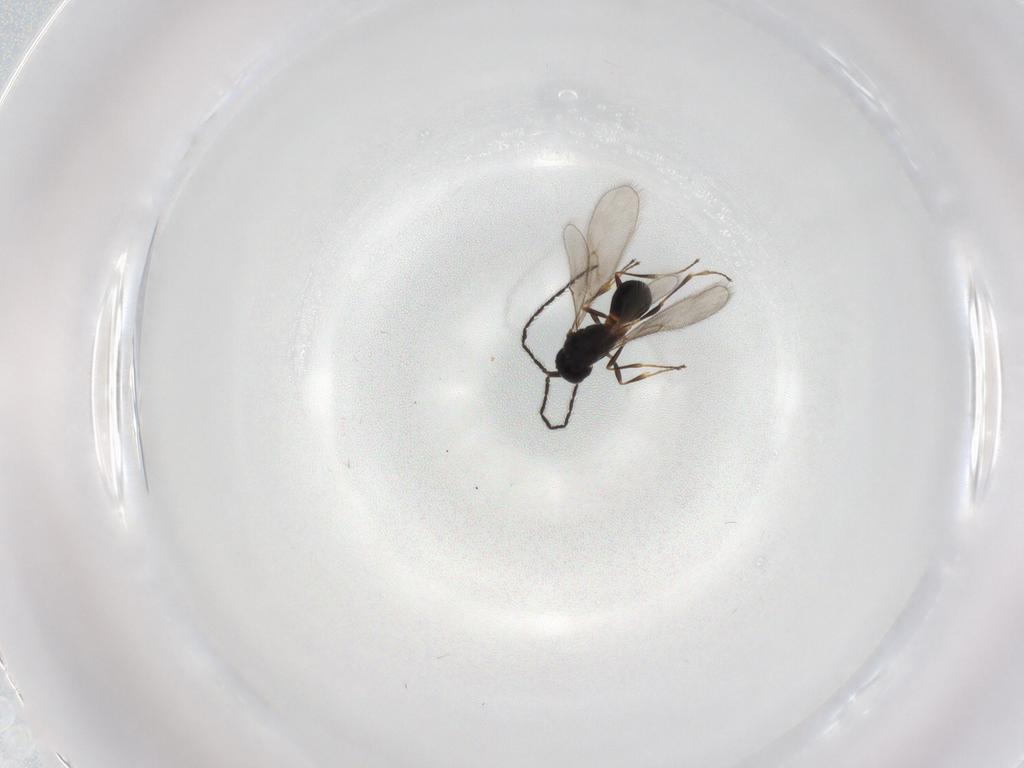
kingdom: Animalia
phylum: Arthropoda
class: Insecta
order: Hymenoptera
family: Scelionidae
